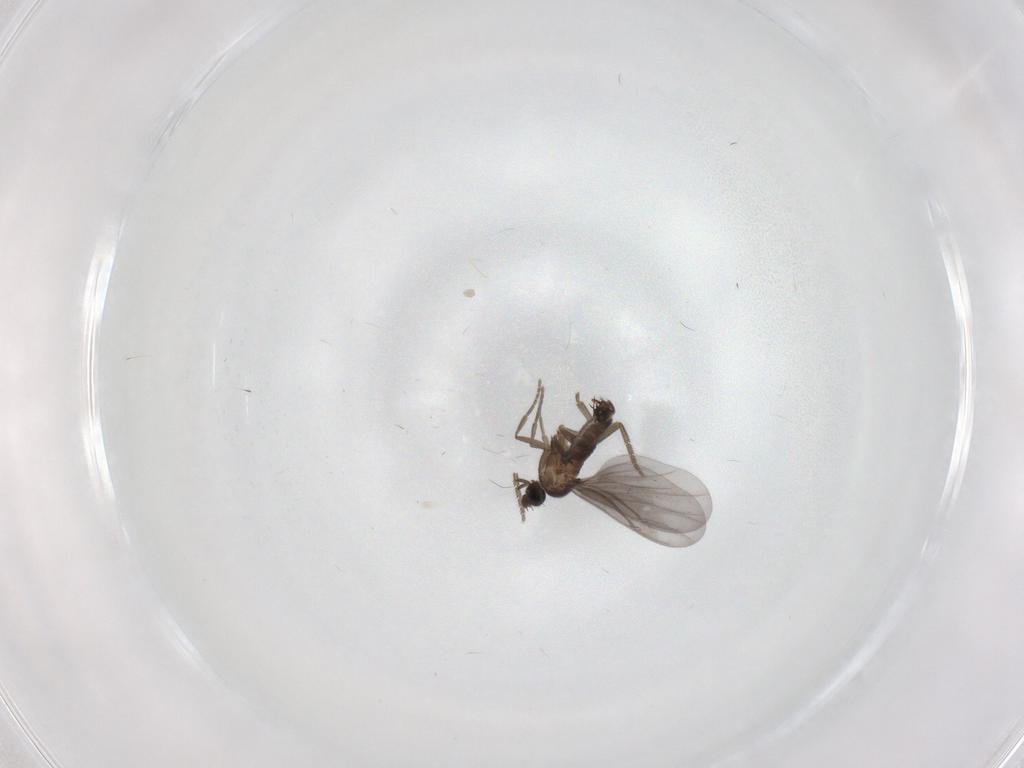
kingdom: Animalia
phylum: Arthropoda
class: Insecta
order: Diptera
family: Phoridae
